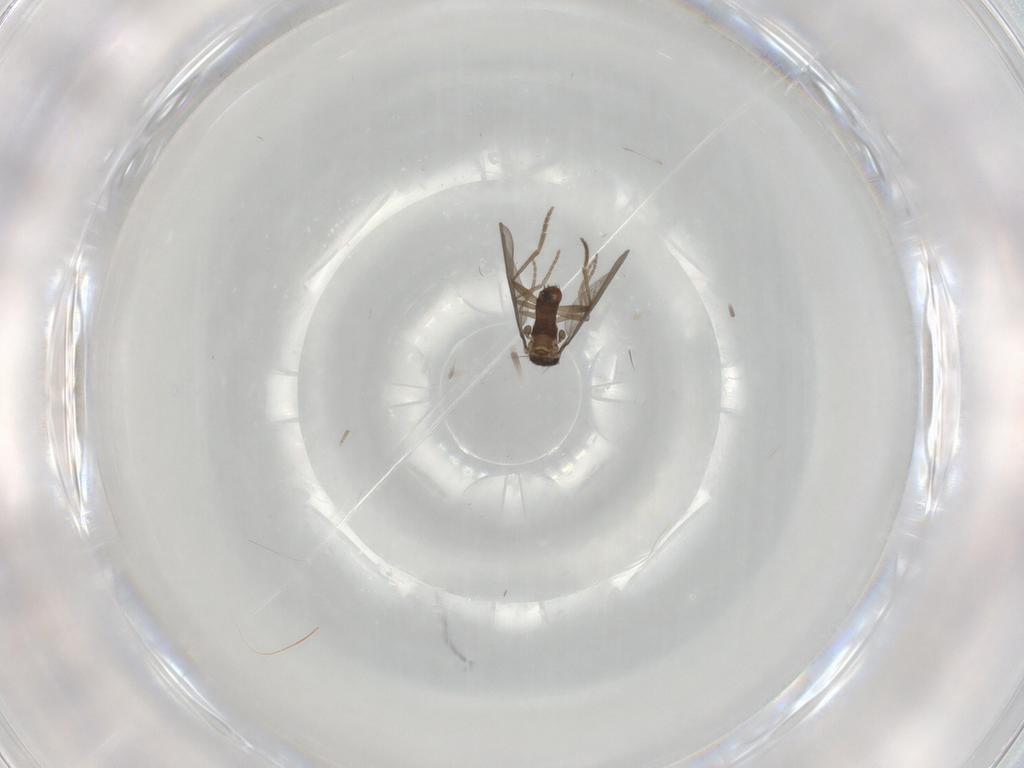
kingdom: Animalia
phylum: Arthropoda
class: Insecta
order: Diptera
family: Phoridae
